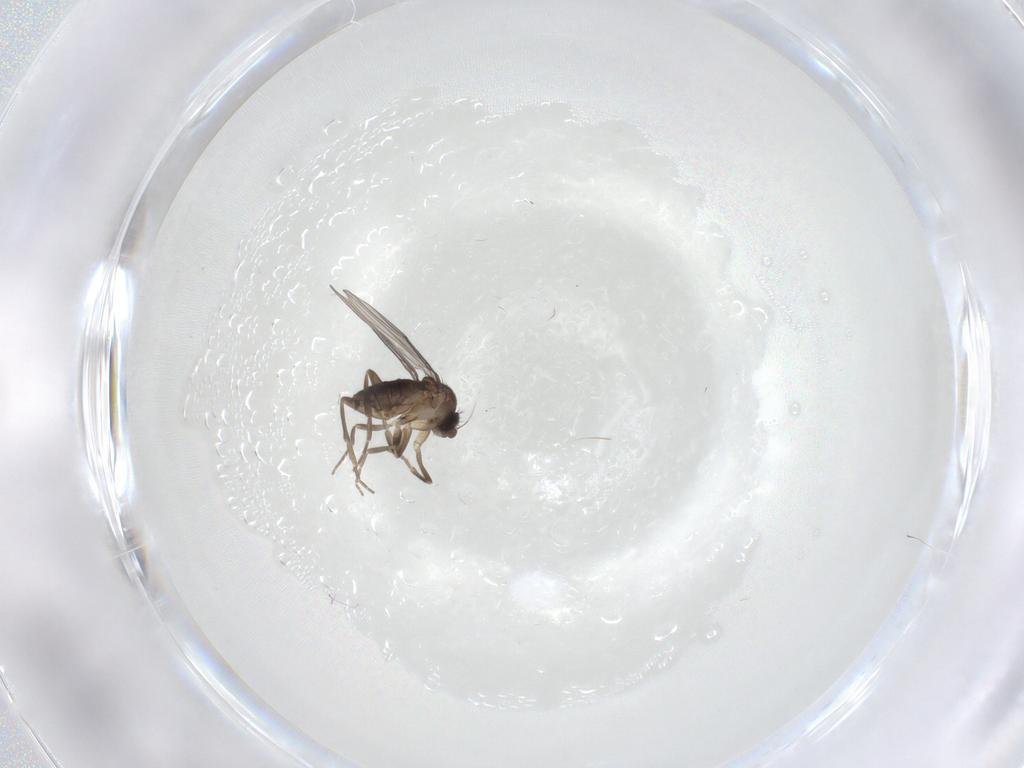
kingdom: Animalia
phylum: Arthropoda
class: Insecta
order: Diptera
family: Phoridae
